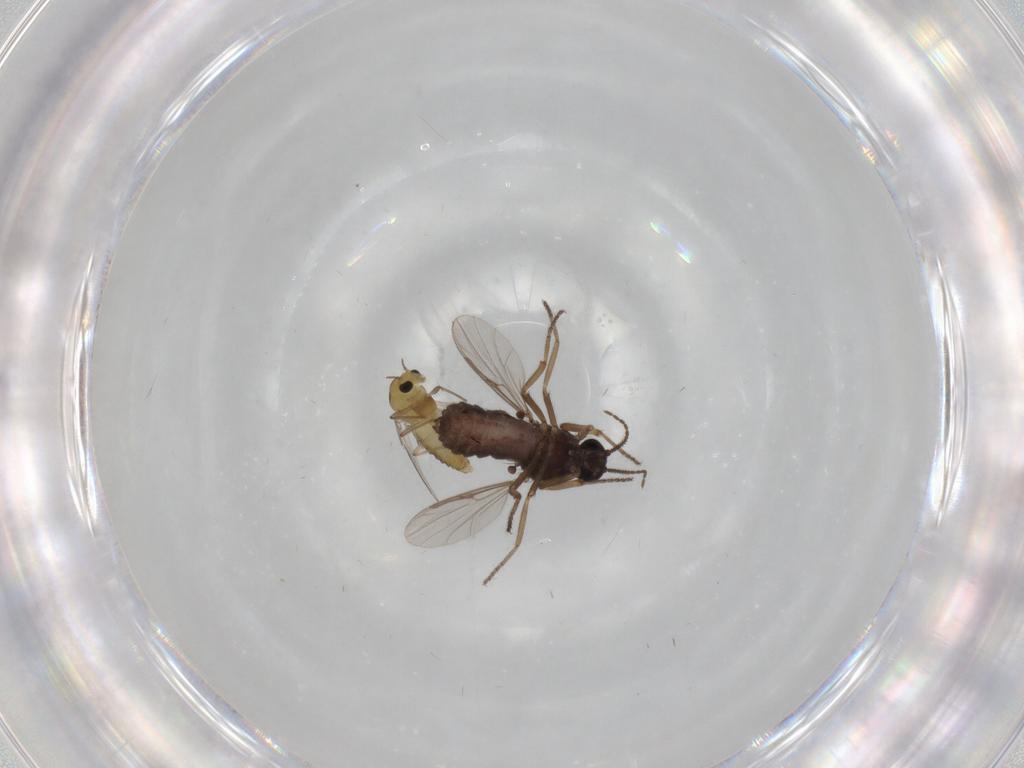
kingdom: Animalia
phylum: Arthropoda
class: Insecta
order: Diptera
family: Ceratopogonidae
